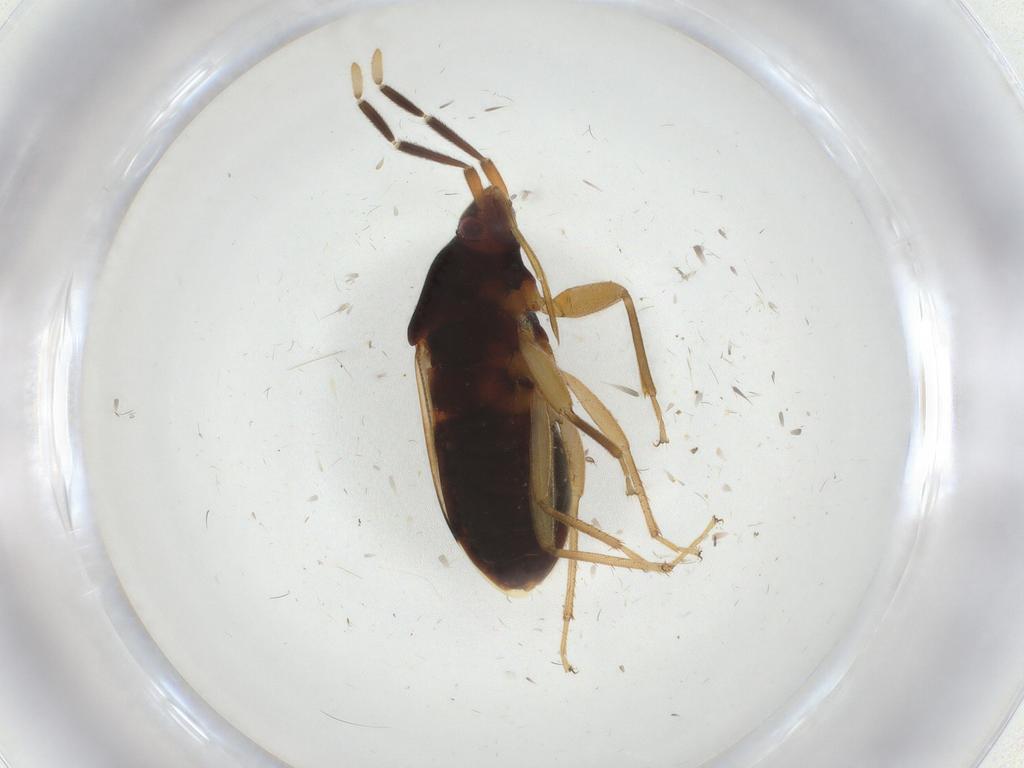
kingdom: Animalia
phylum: Arthropoda
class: Insecta
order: Hemiptera
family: Rhyparochromidae
